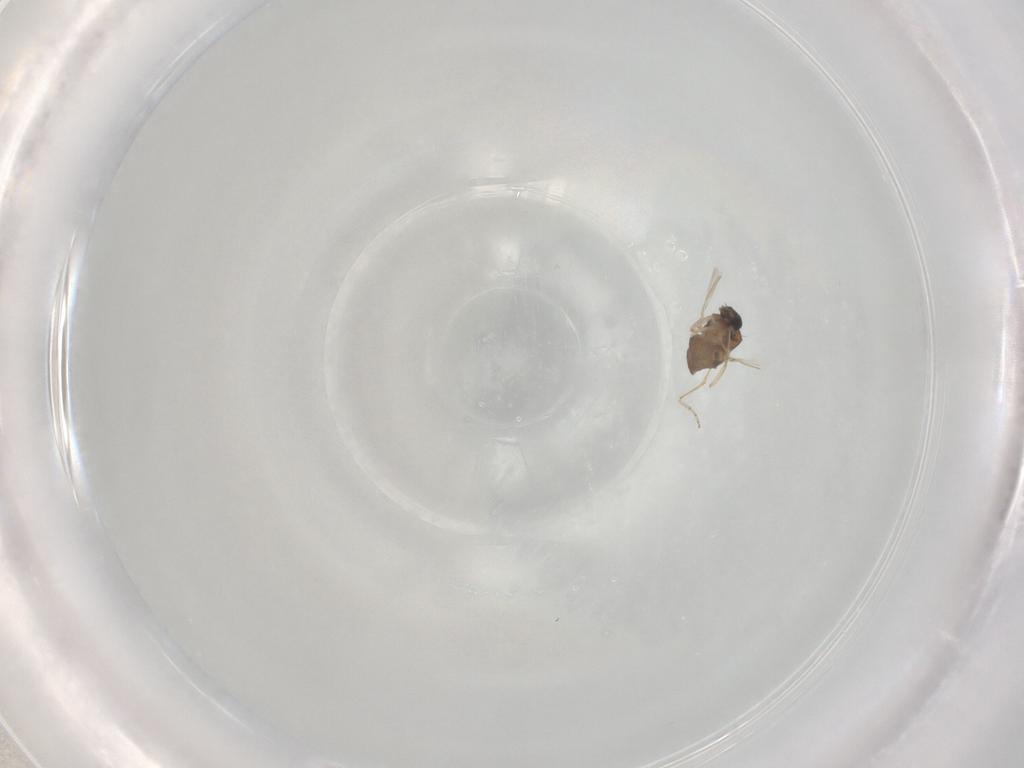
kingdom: Animalia
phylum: Arthropoda
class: Insecta
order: Diptera
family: Ceratopogonidae
